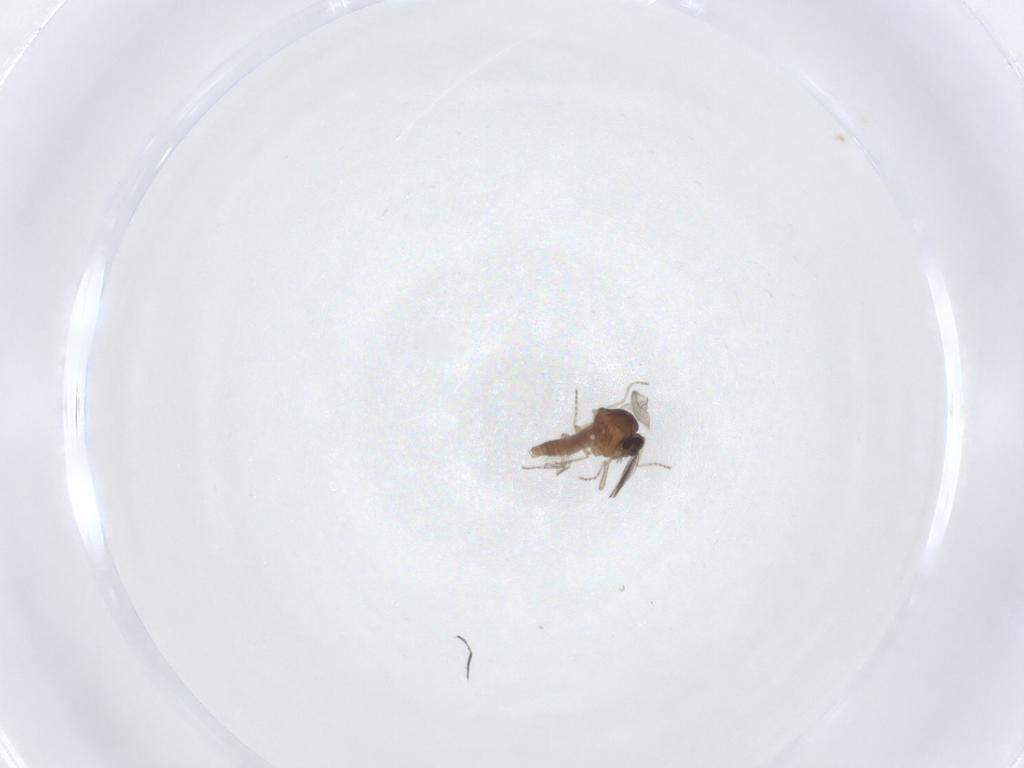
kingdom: Animalia
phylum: Arthropoda
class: Insecta
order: Diptera
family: Ceratopogonidae
